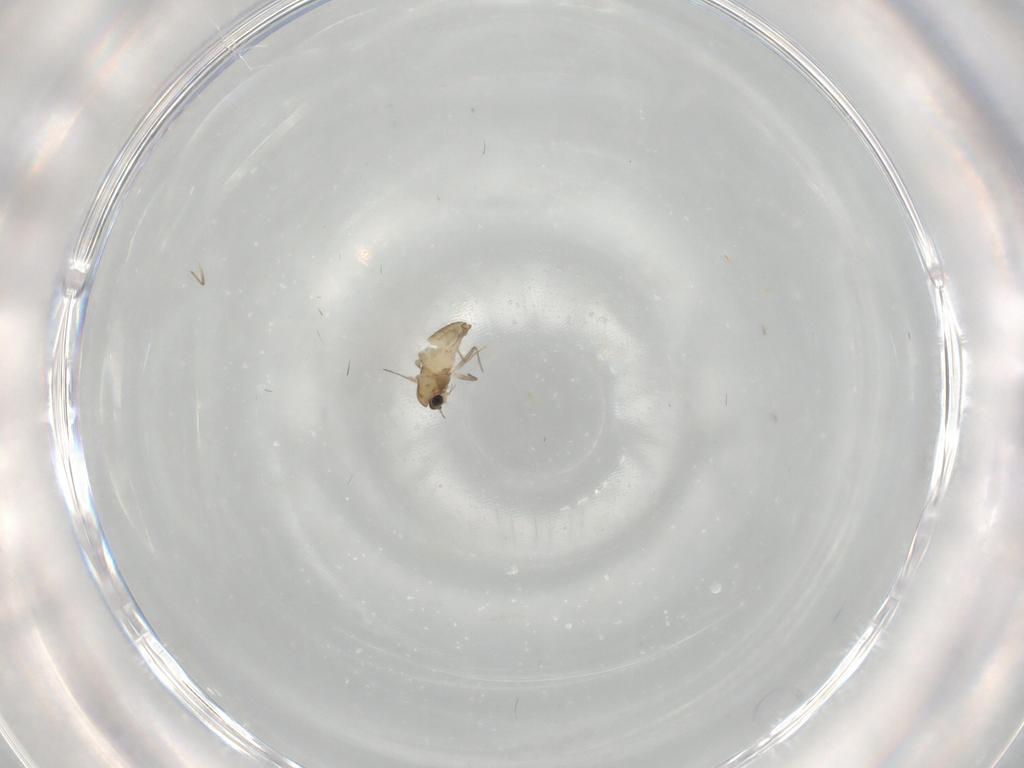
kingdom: Animalia
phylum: Arthropoda
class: Insecta
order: Diptera
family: Chironomidae
